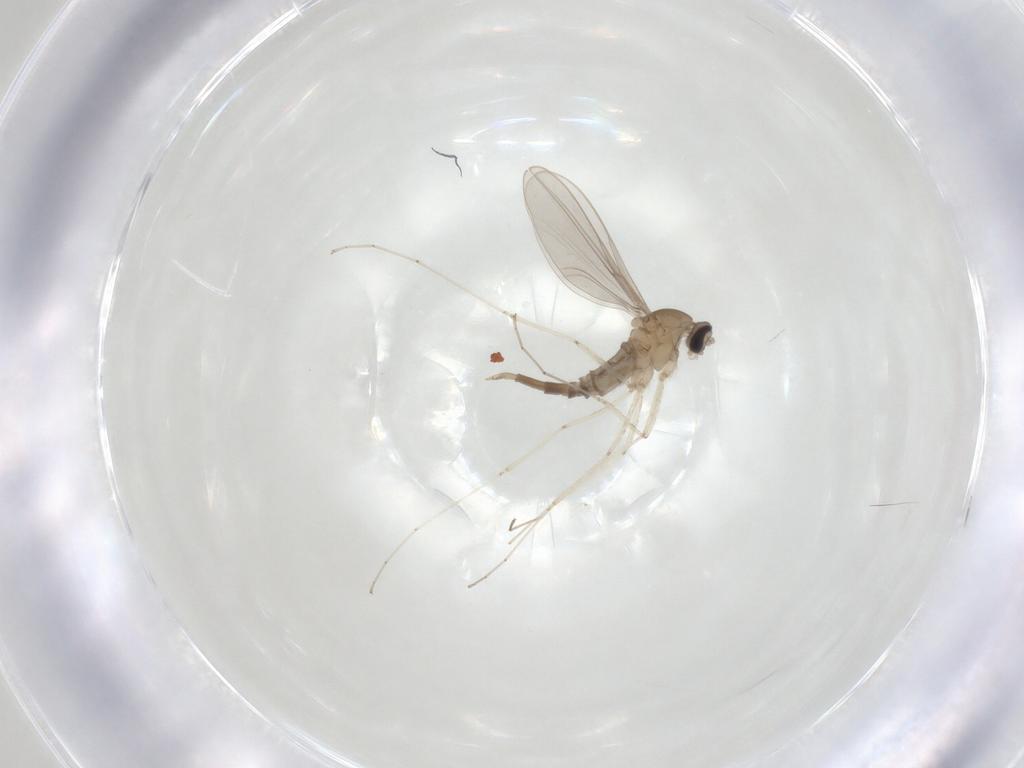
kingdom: Animalia
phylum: Arthropoda
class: Insecta
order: Diptera
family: Cecidomyiidae
